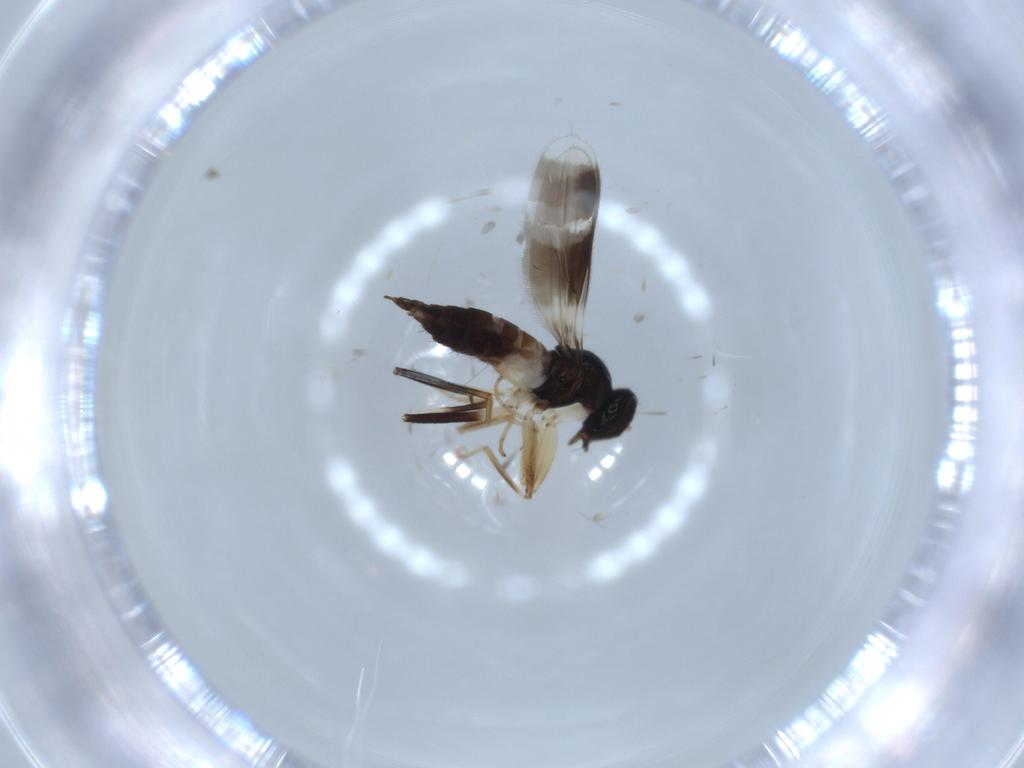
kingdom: Animalia
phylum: Arthropoda
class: Insecta
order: Diptera
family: Hybotidae
